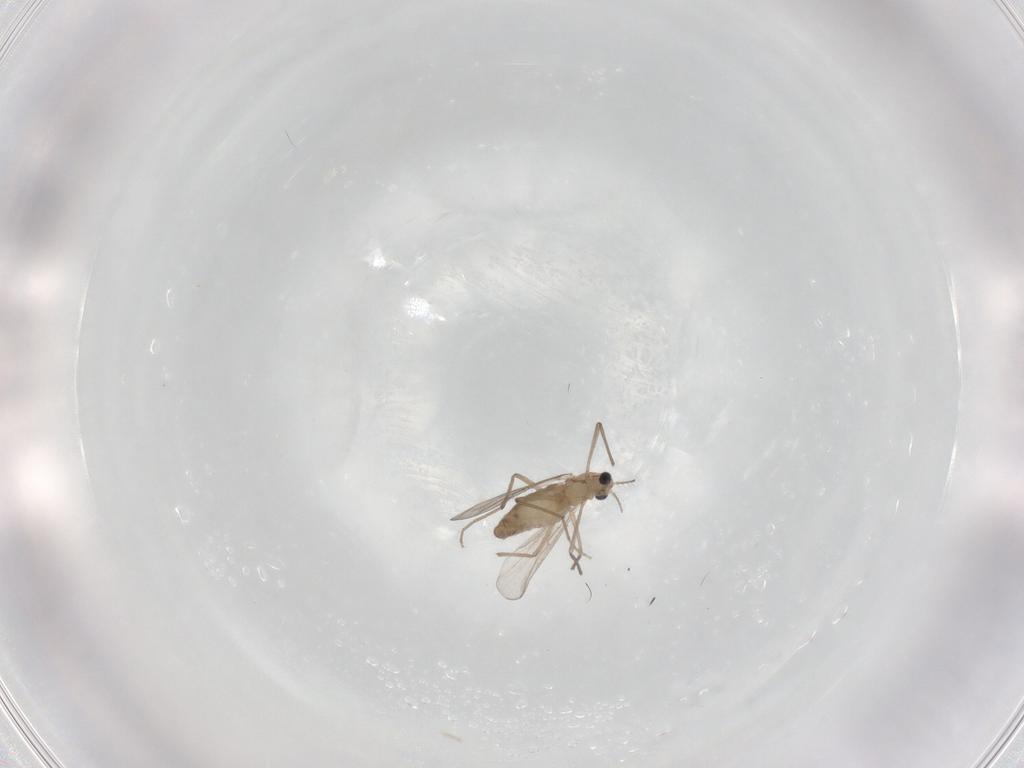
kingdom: Animalia
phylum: Arthropoda
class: Insecta
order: Diptera
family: Chironomidae
